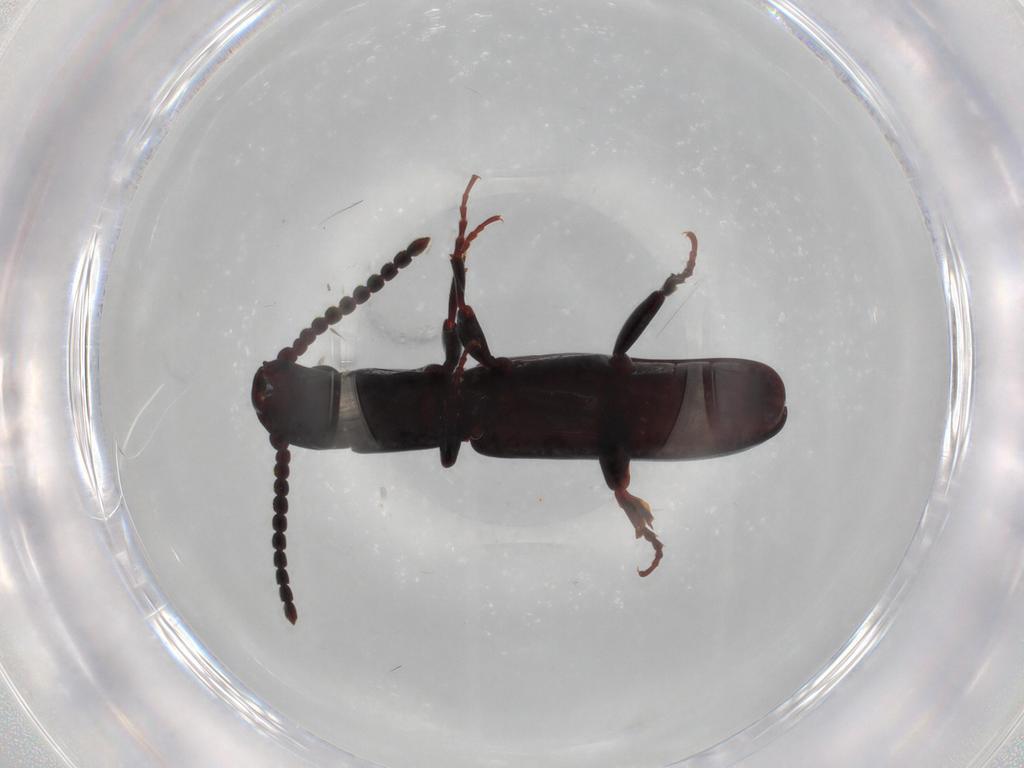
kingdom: Animalia
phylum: Arthropoda
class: Insecta
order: Coleoptera
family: Passandridae
